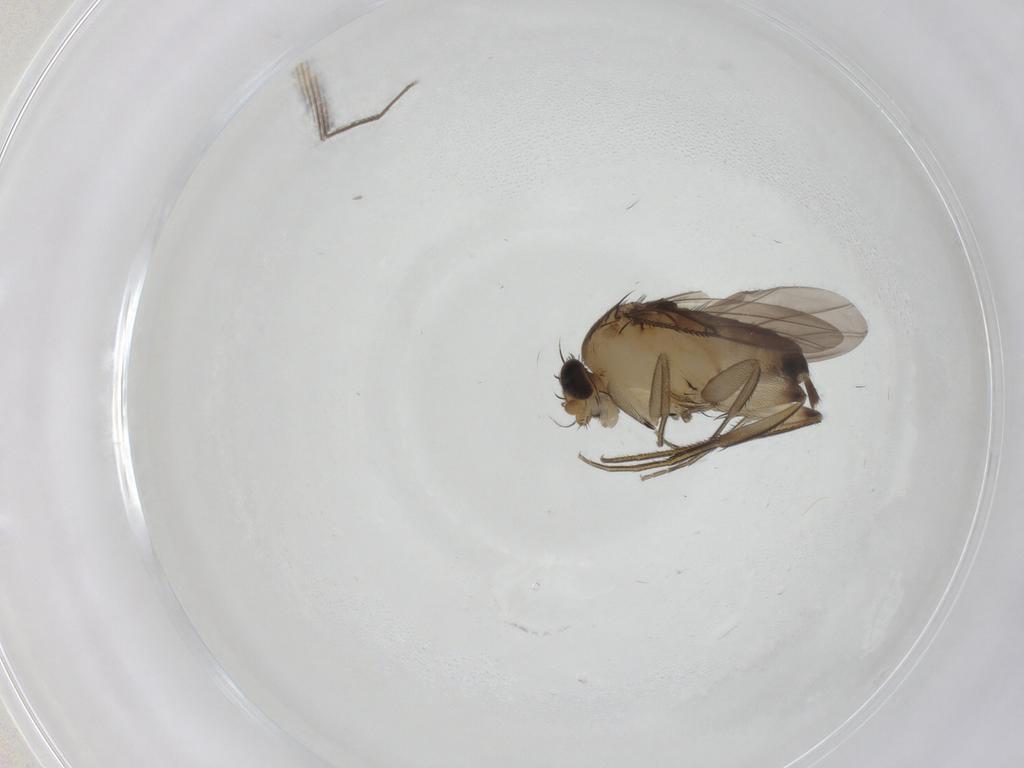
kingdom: Animalia
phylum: Arthropoda
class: Insecta
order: Diptera
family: Phoridae
